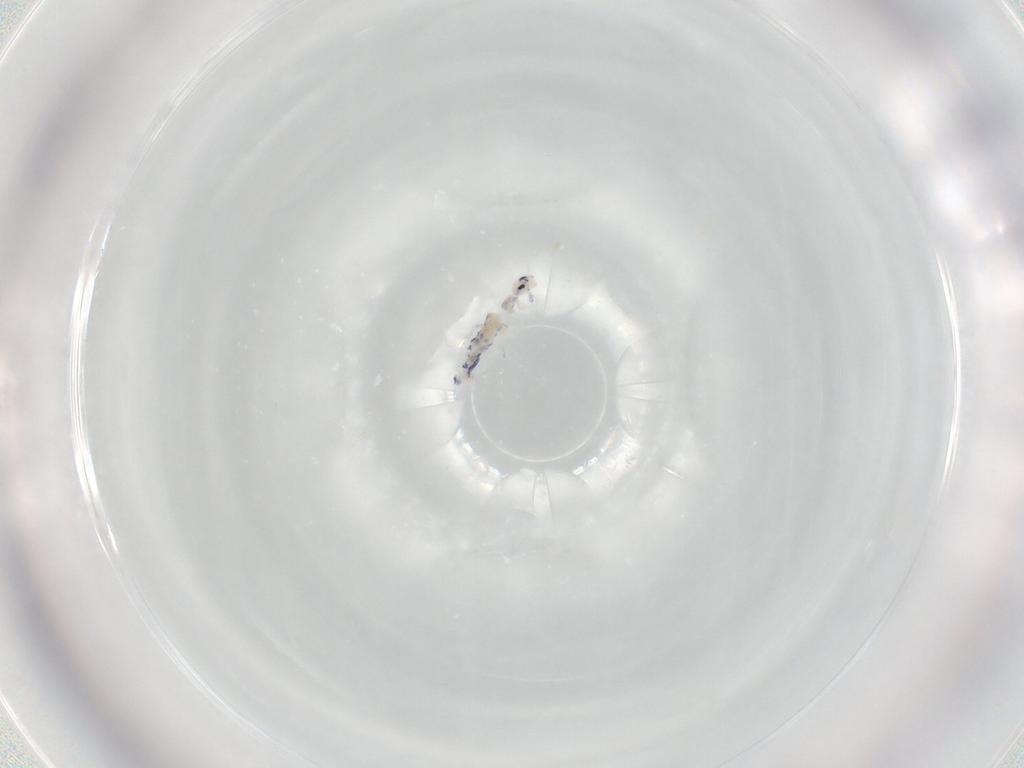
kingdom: Animalia
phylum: Arthropoda
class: Collembola
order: Entomobryomorpha
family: Entomobryidae
